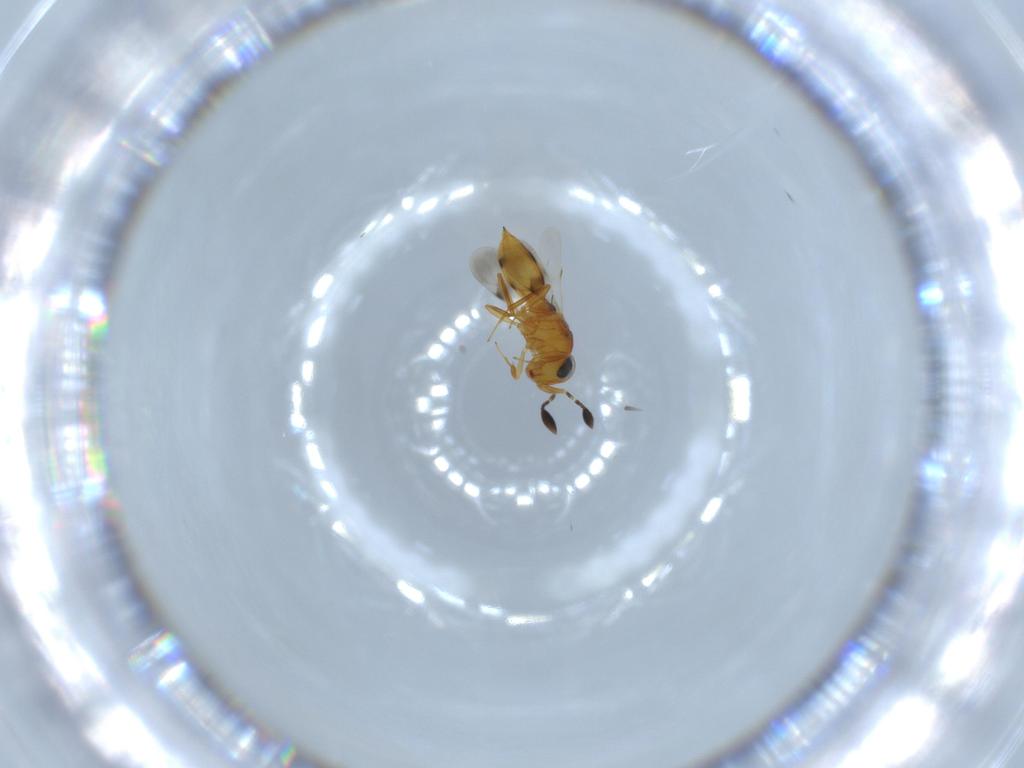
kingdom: Animalia
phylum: Arthropoda
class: Insecta
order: Hymenoptera
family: Scelionidae
